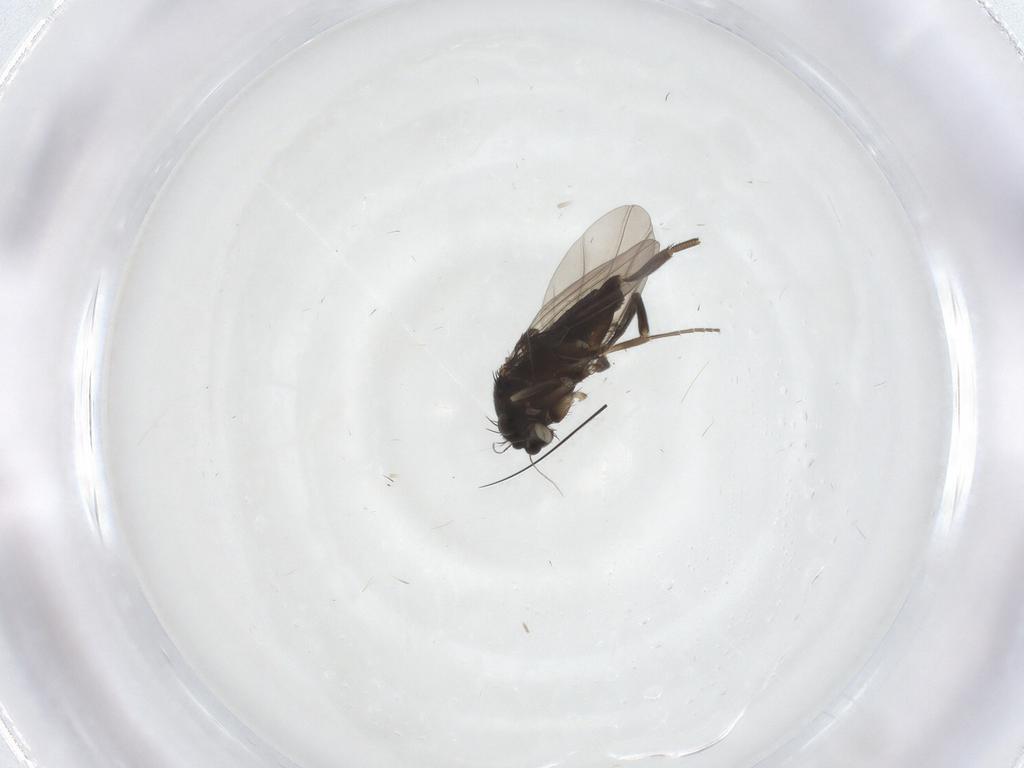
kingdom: Animalia
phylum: Arthropoda
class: Insecta
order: Diptera
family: Phoridae
